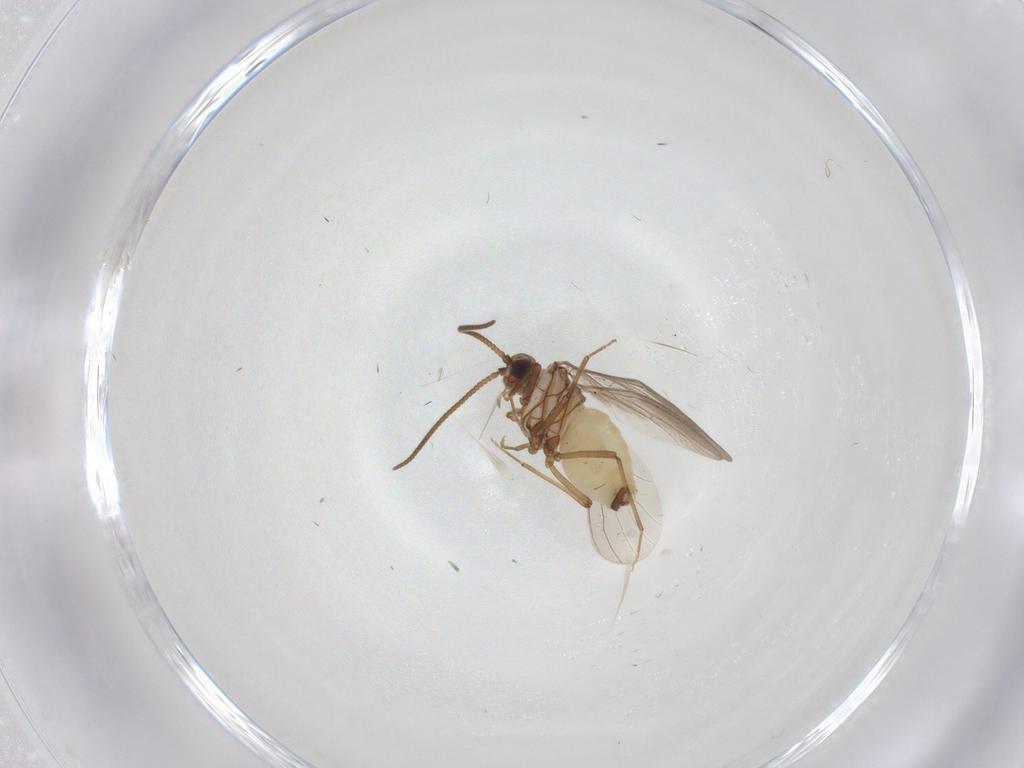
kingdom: Animalia
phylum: Arthropoda
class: Insecta
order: Neuroptera
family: Coniopterygidae
